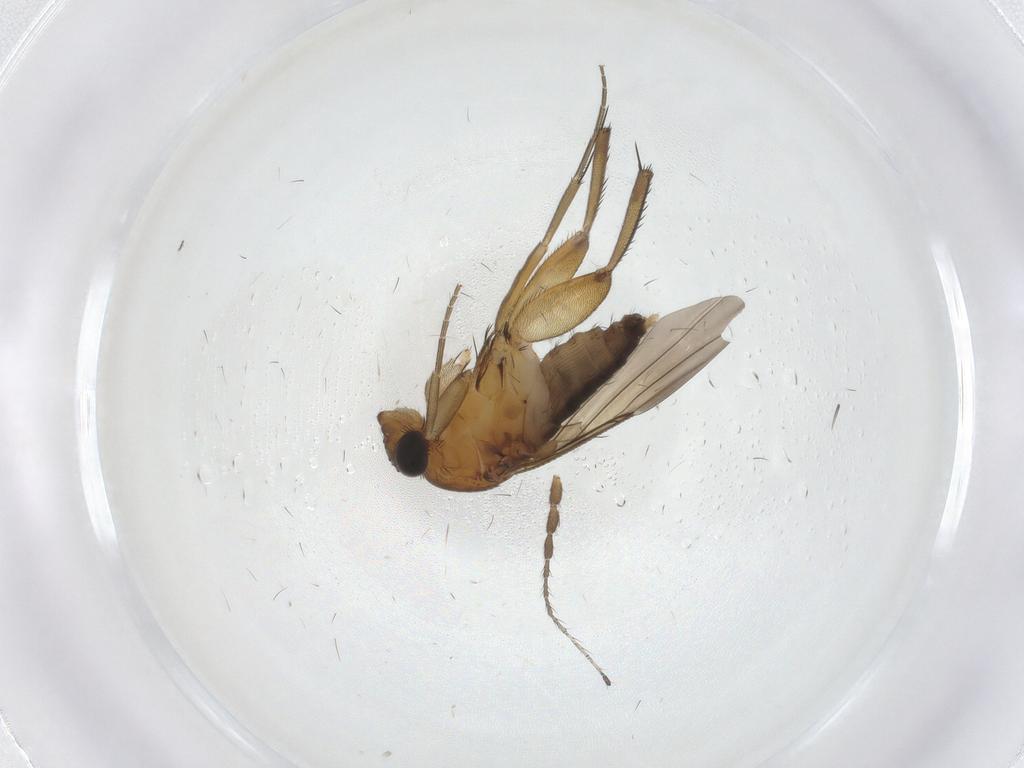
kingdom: Animalia
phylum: Arthropoda
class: Insecta
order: Diptera
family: Phoridae
